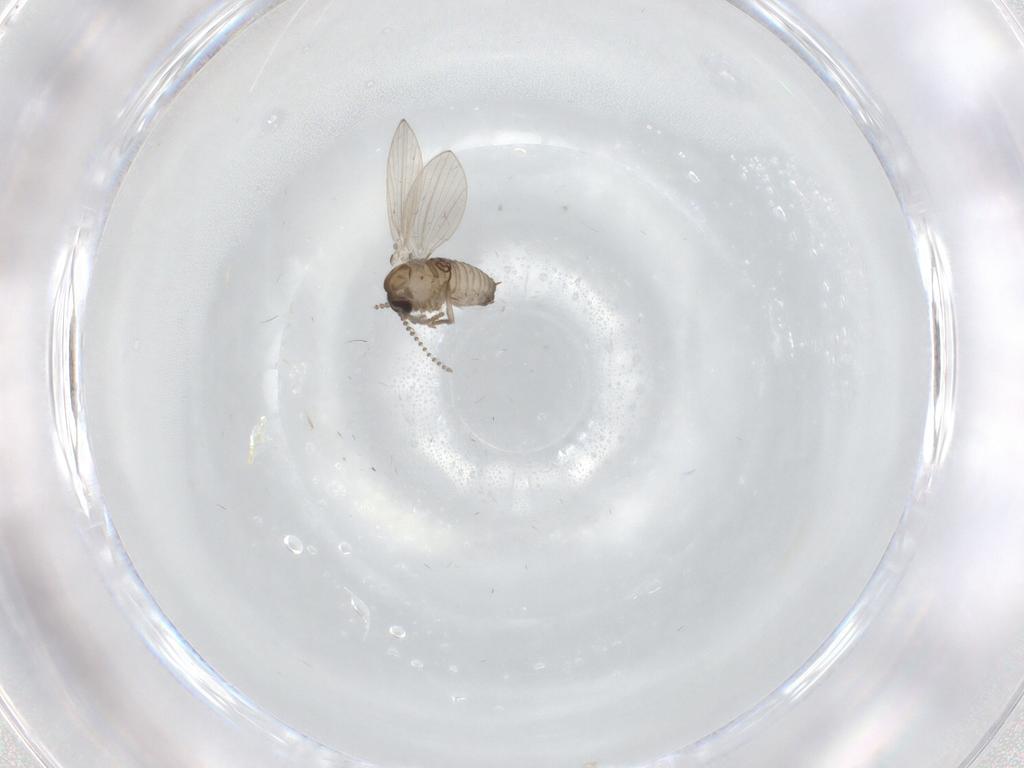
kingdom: Animalia
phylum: Arthropoda
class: Insecta
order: Diptera
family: Psychodidae
